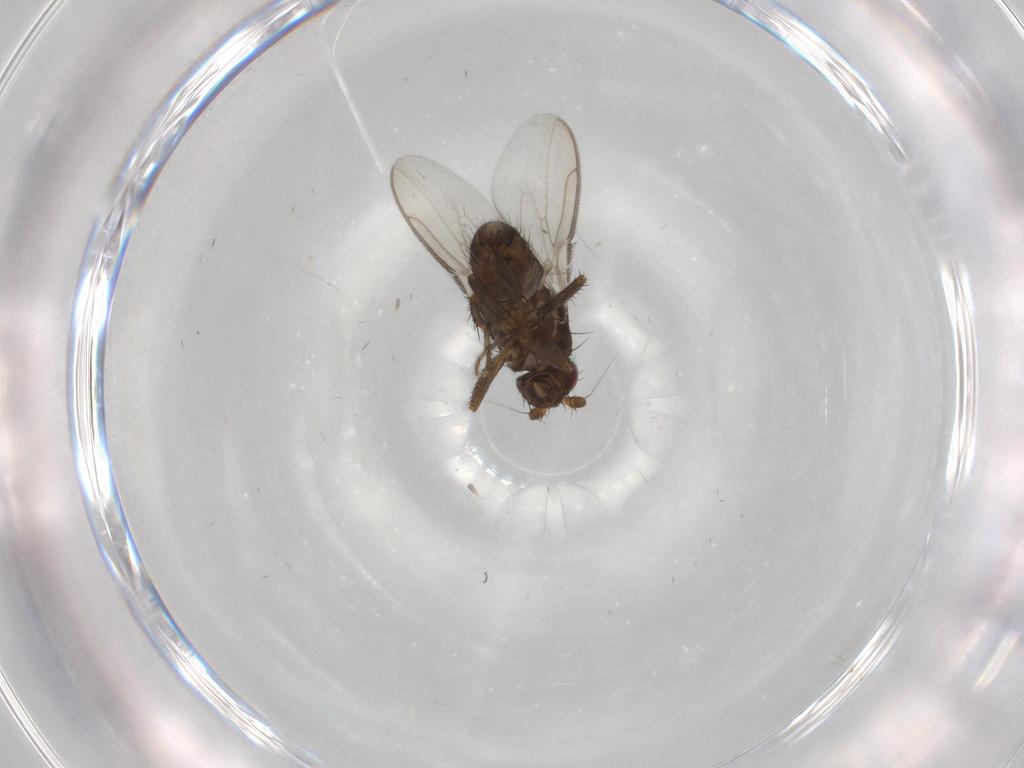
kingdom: Animalia
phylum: Arthropoda
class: Insecta
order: Diptera
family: Sphaeroceridae
